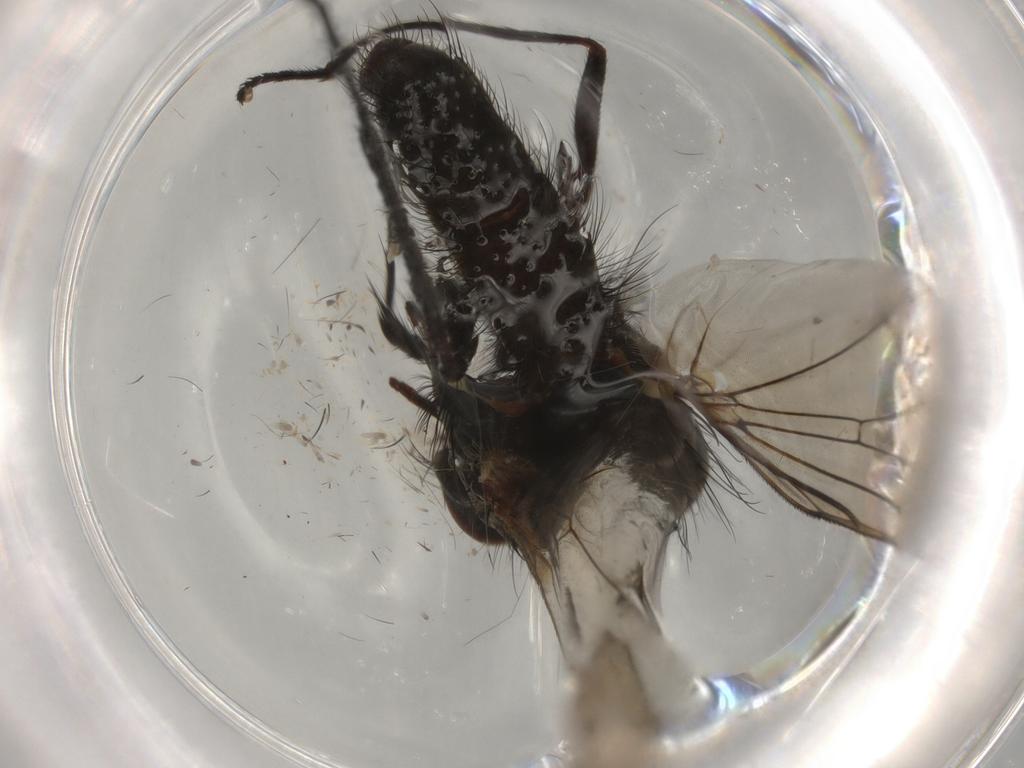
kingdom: Animalia
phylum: Arthropoda
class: Insecta
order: Diptera
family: Anthomyiidae
